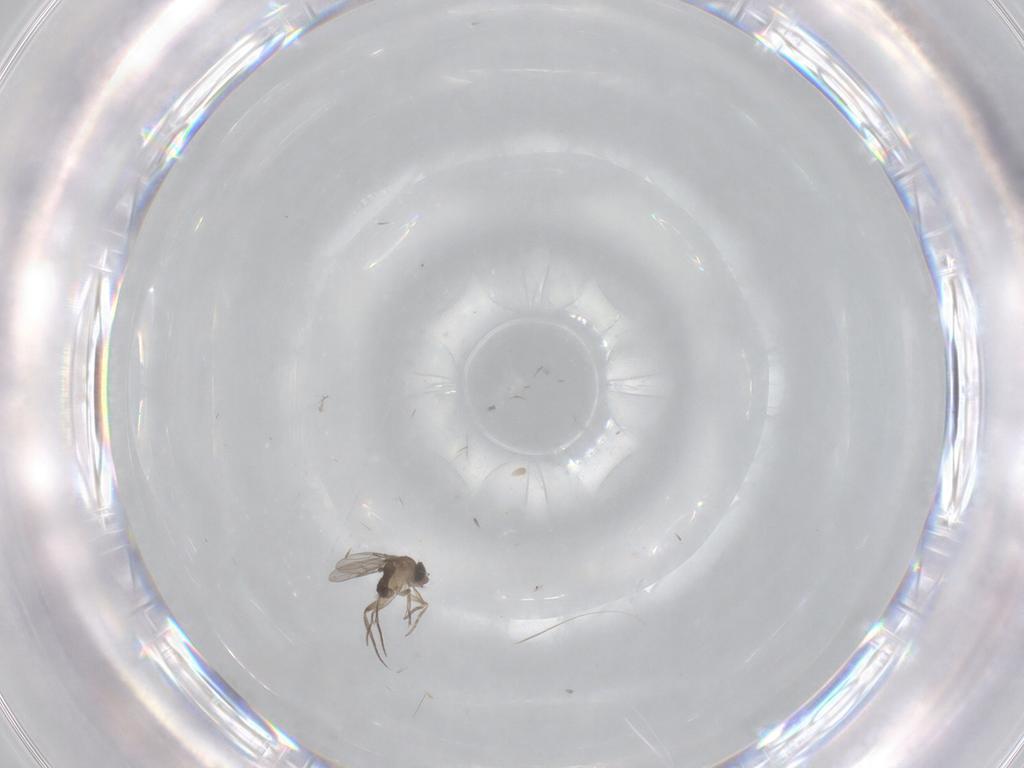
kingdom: Animalia
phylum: Arthropoda
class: Insecta
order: Diptera
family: Phoridae
